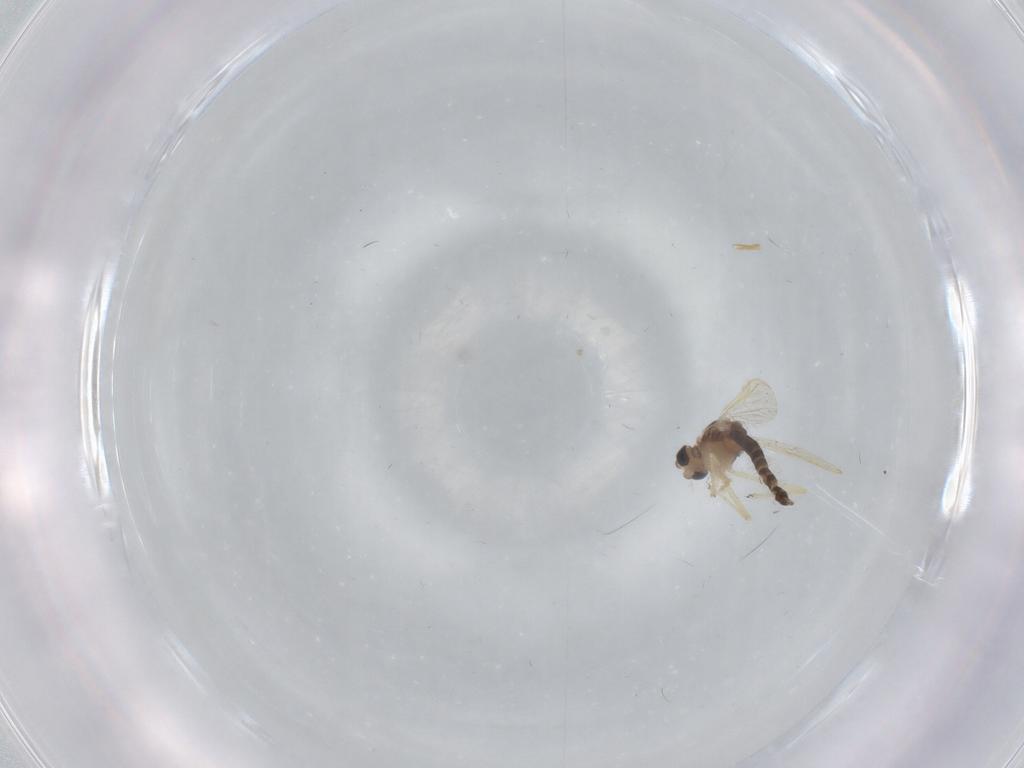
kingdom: Animalia
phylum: Arthropoda
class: Insecta
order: Diptera
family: Chironomidae
